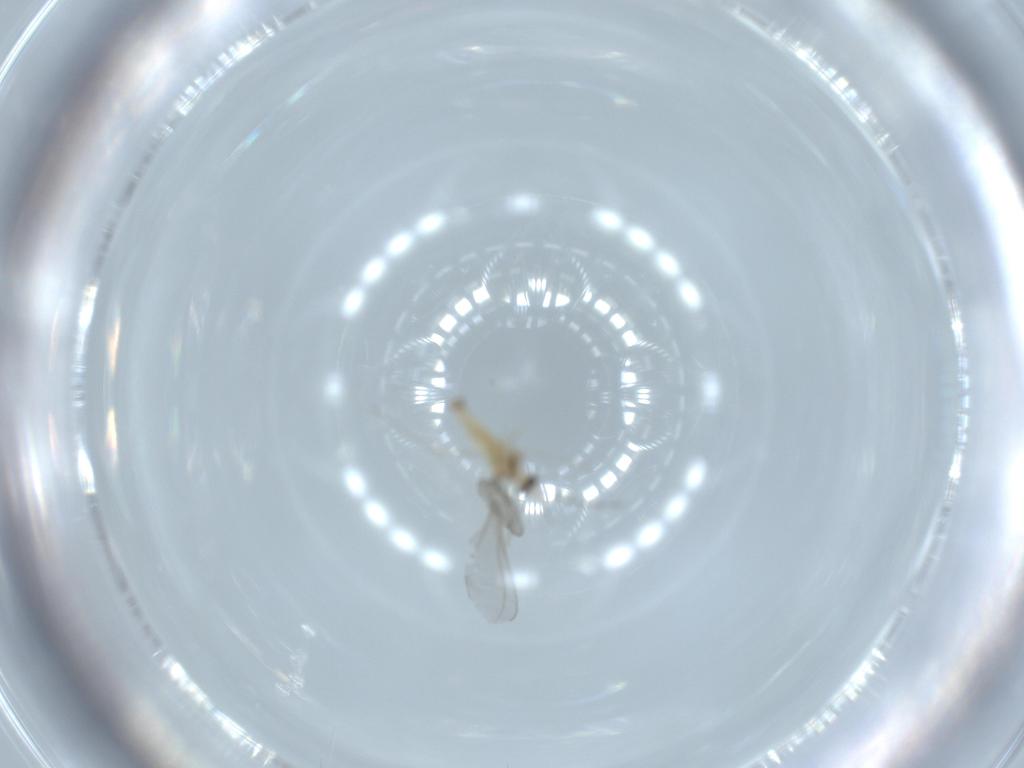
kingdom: Animalia
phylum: Arthropoda
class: Insecta
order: Diptera
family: Cecidomyiidae
